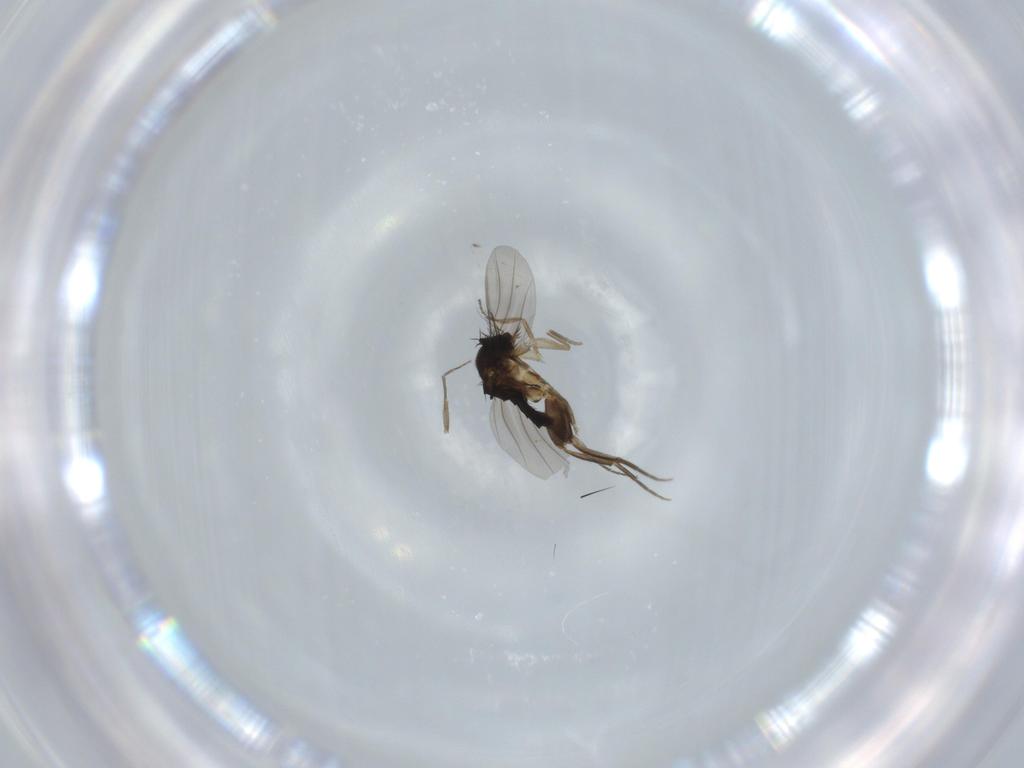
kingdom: Animalia
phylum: Arthropoda
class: Insecta
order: Diptera
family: Phoridae
